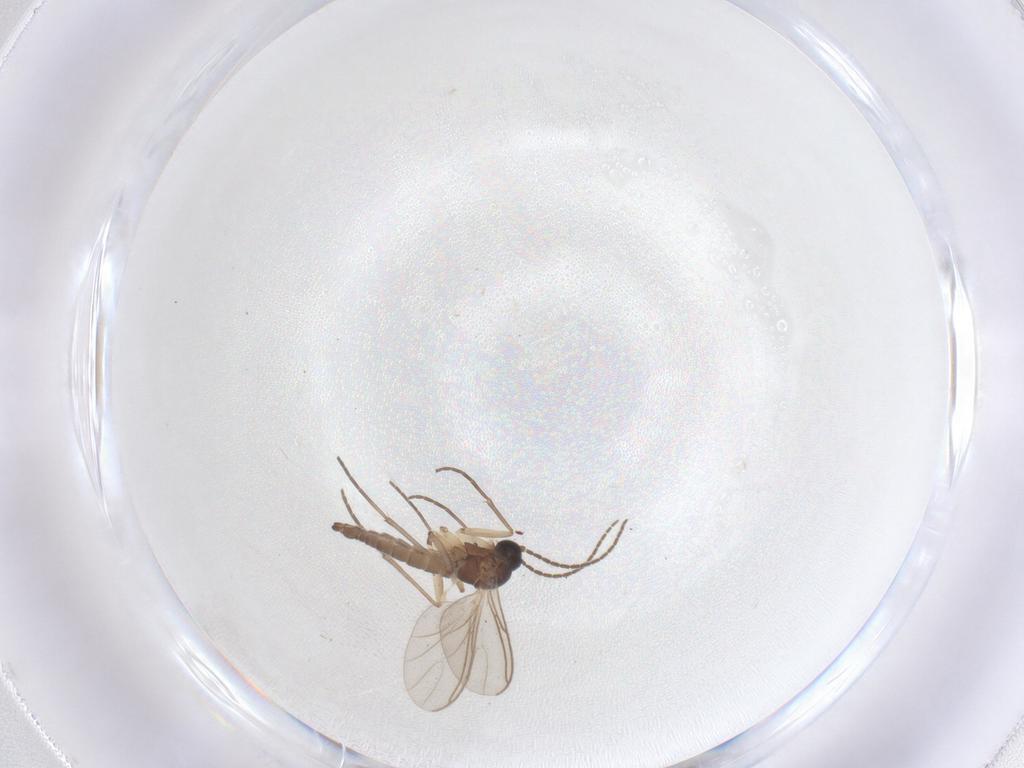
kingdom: Animalia
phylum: Arthropoda
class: Insecta
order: Diptera
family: Sciaridae
